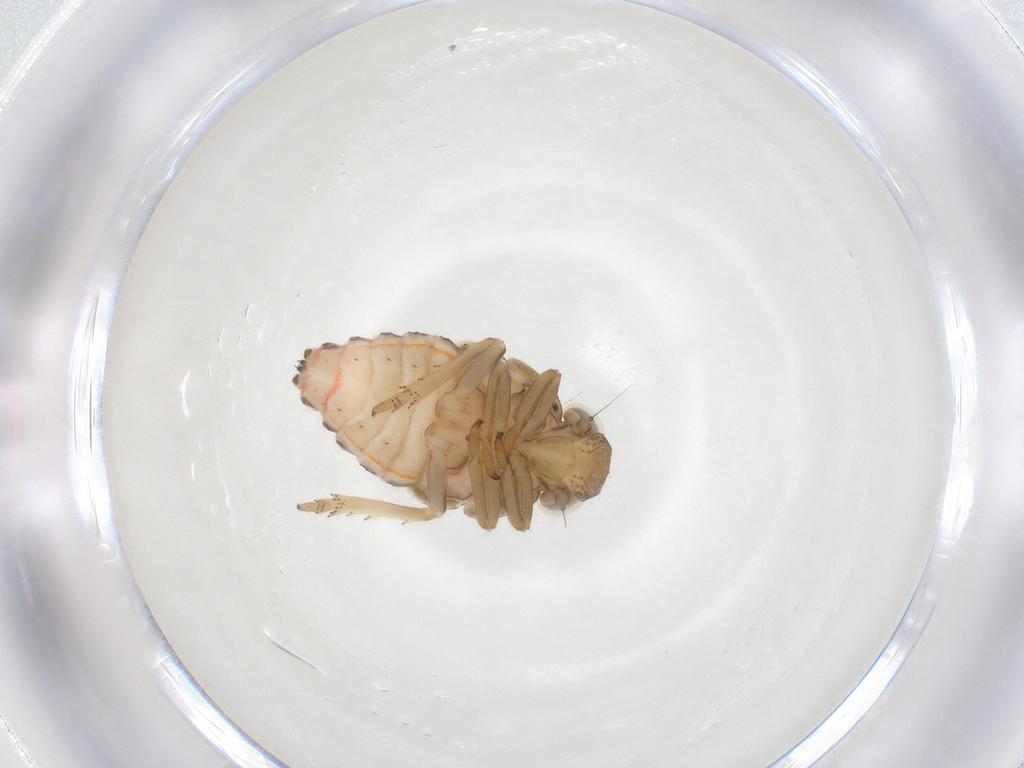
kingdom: Animalia
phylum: Arthropoda
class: Insecta
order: Hemiptera
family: Issidae
